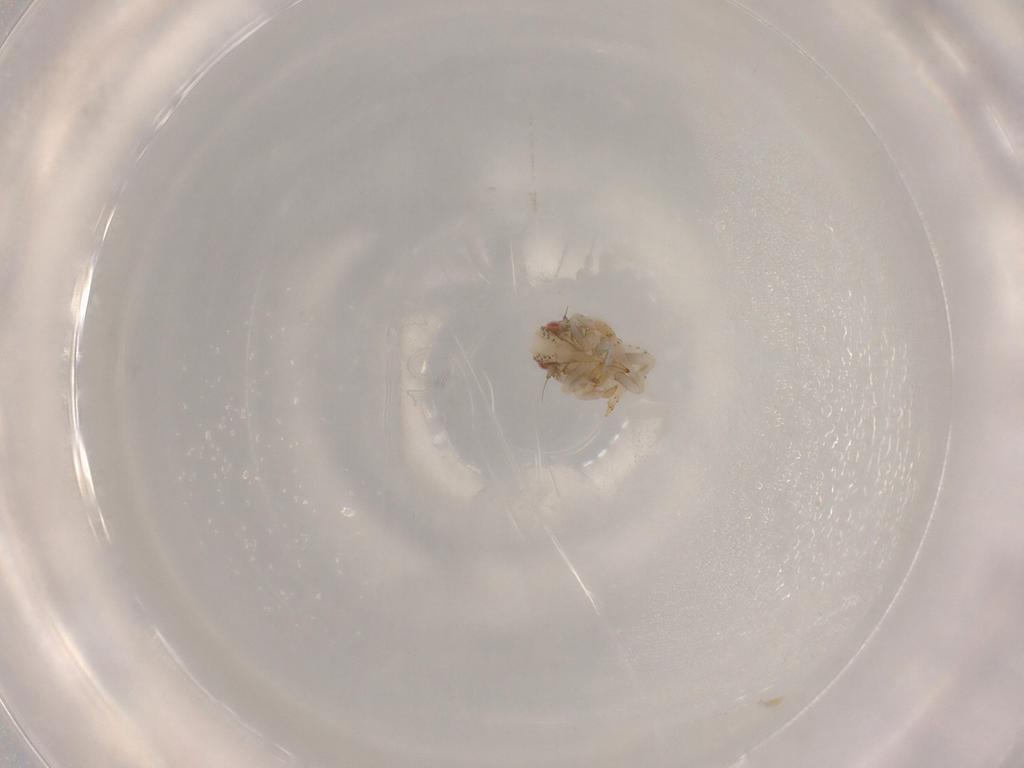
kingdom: Animalia
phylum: Arthropoda
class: Insecta
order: Hemiptera
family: Acanaloniidae
